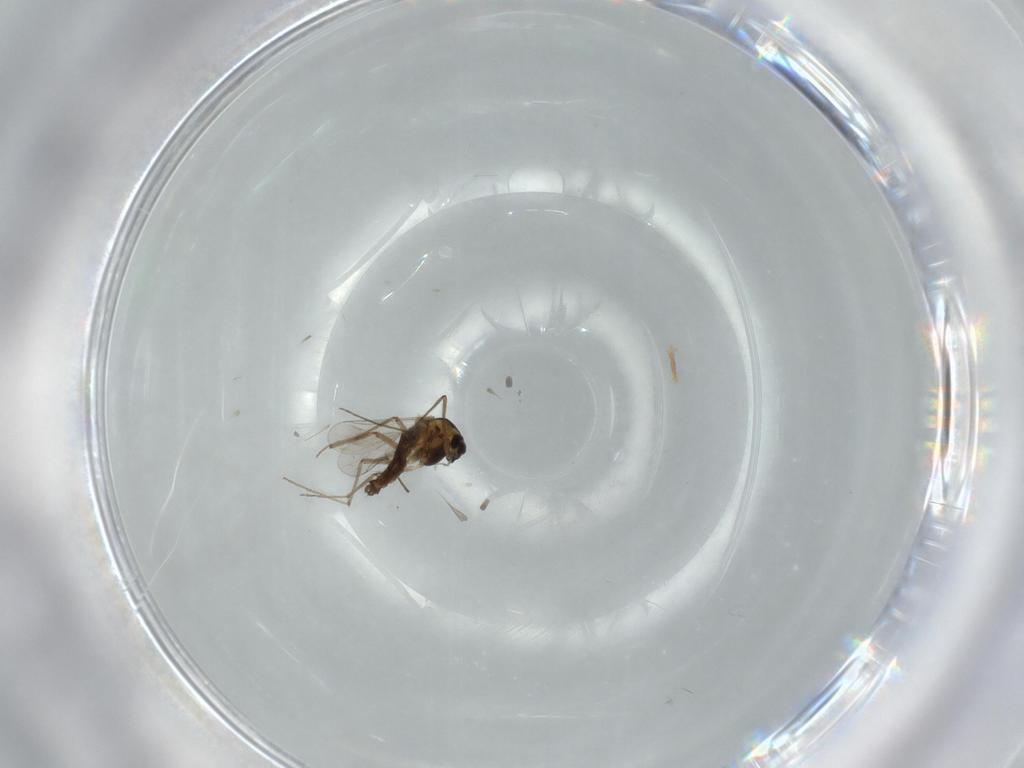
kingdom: Animalia
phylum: Arthropoda
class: Insecta
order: Diptera
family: Chironomidae
